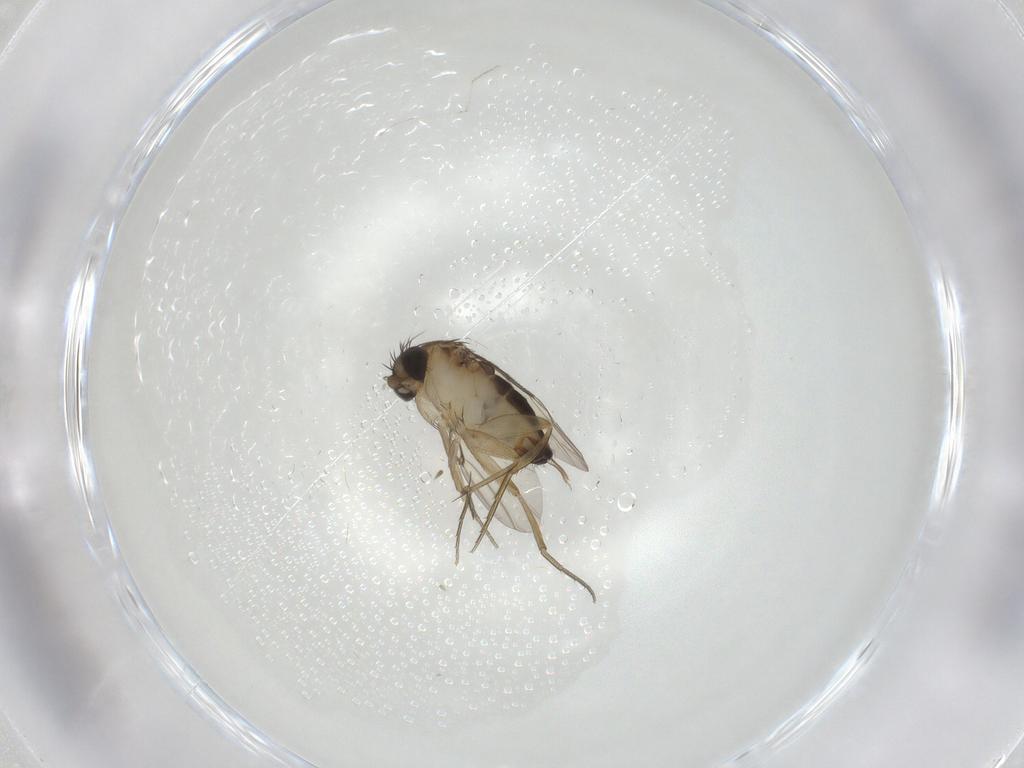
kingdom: Animalia
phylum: Arthropoda
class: Insecta
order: Diptera
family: Phoridae
